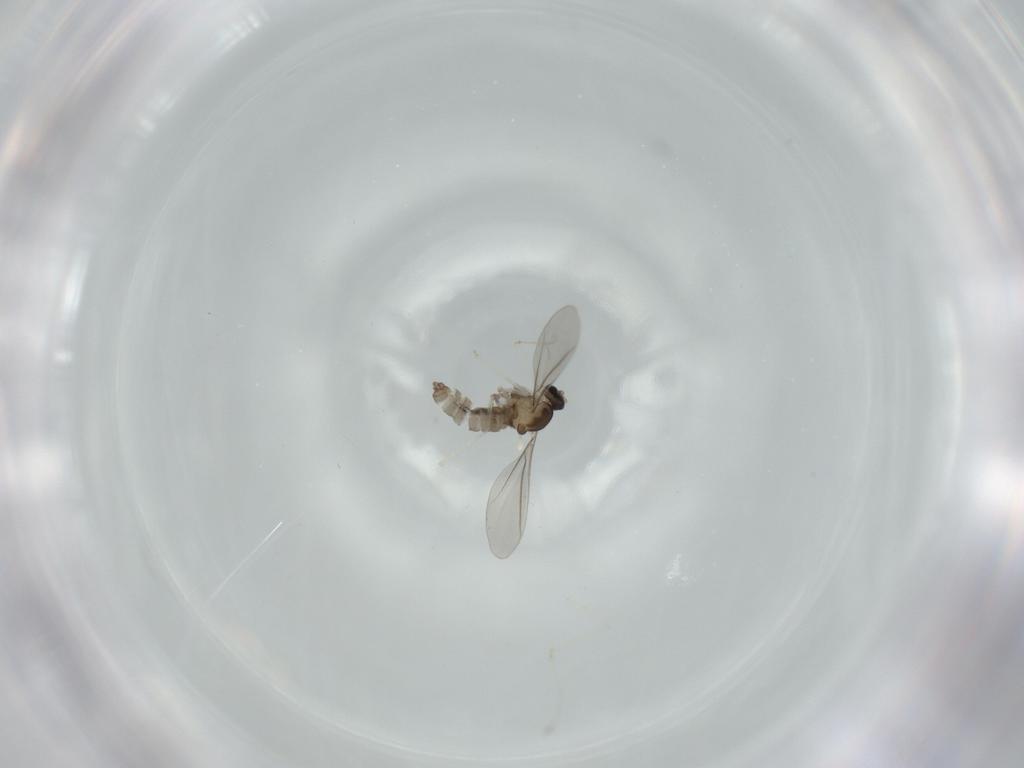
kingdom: Animalia
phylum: Arthropoda
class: Insecta
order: Diptera
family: Cecidomyiidae
